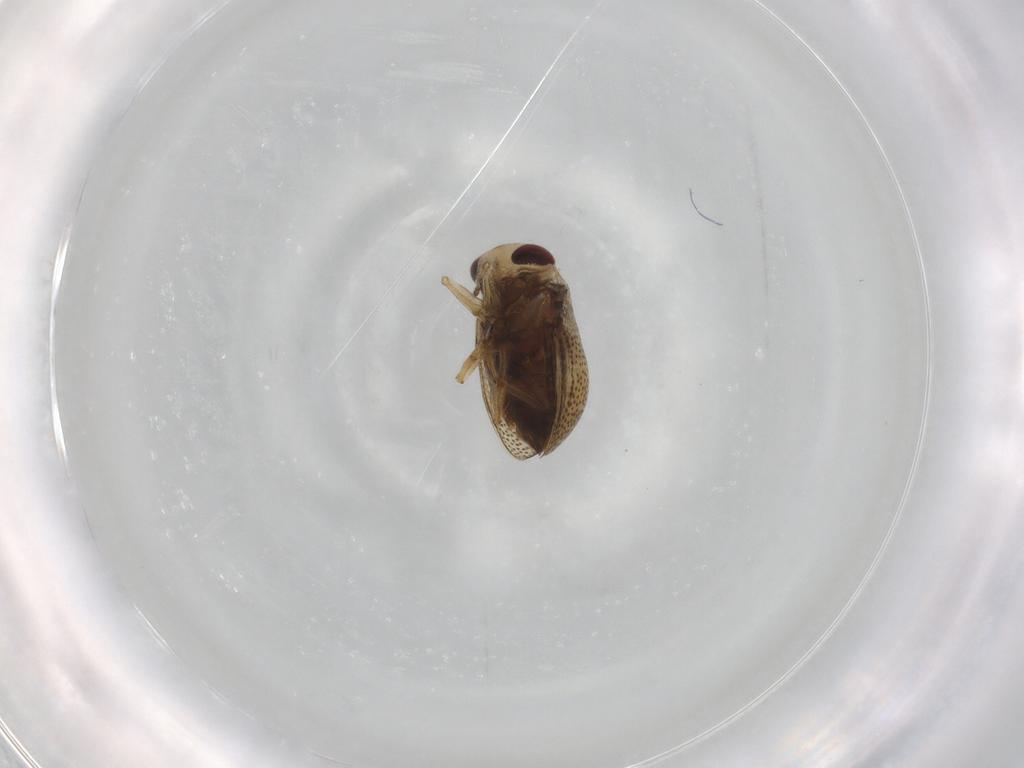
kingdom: Animalia
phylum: Arthropoda
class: Insecta
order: Hemiptera
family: Pleidae
